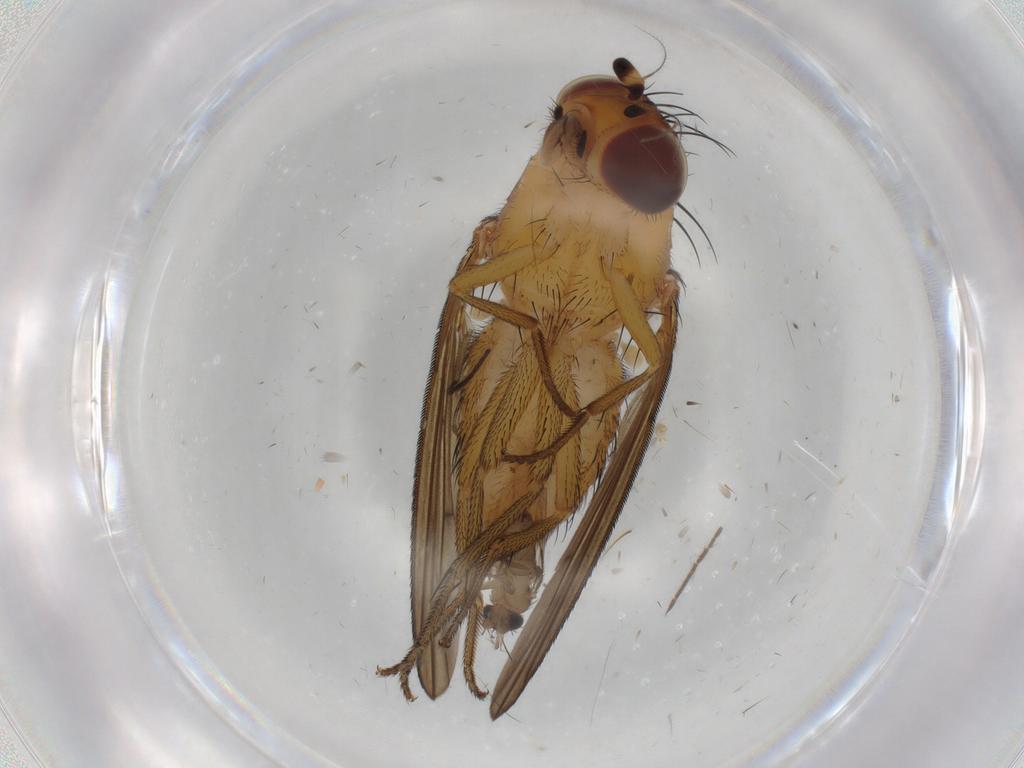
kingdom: Animalia
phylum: Arthropoda
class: Insecta
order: Diptera
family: Phoridae
